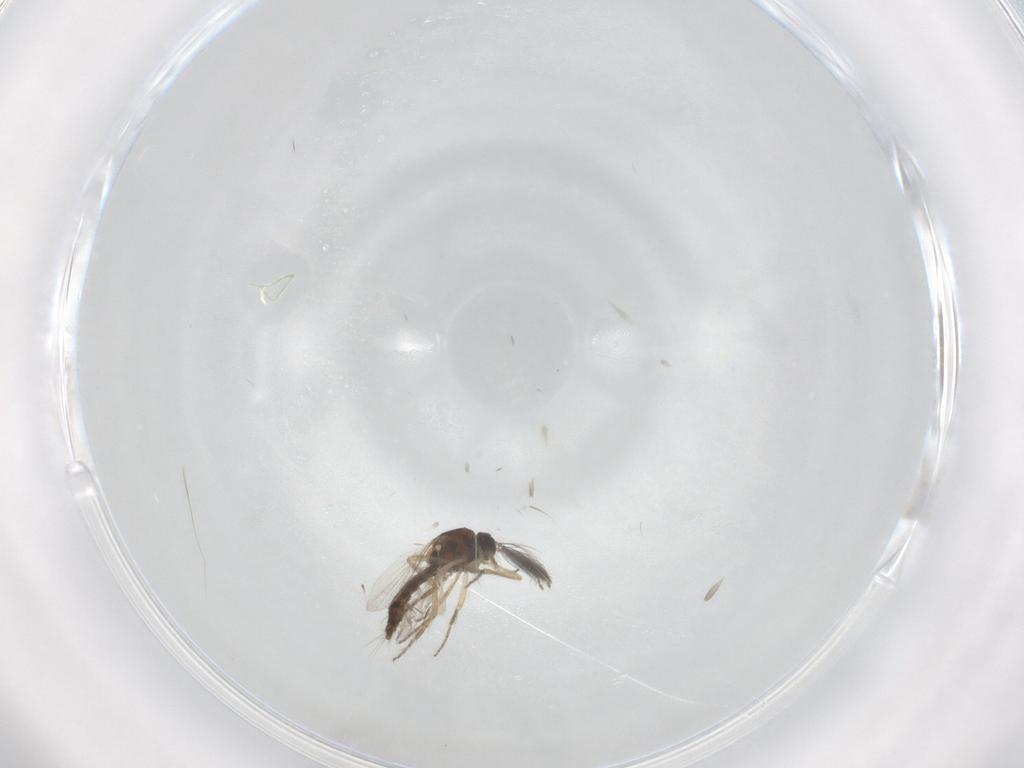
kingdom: Animalia
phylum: Arthropoda
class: Insecta
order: Diptera
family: Ceratopogonidae
